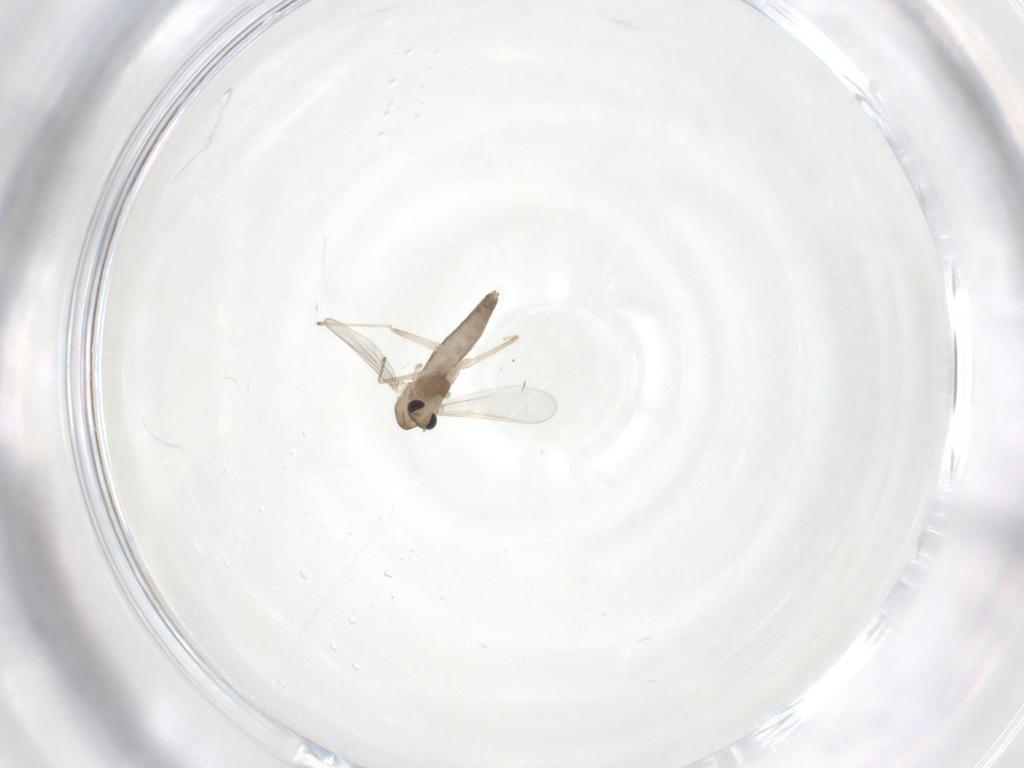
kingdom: Animalia
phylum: Arthropoda
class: Insecta
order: Diptera
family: Chironomidae
